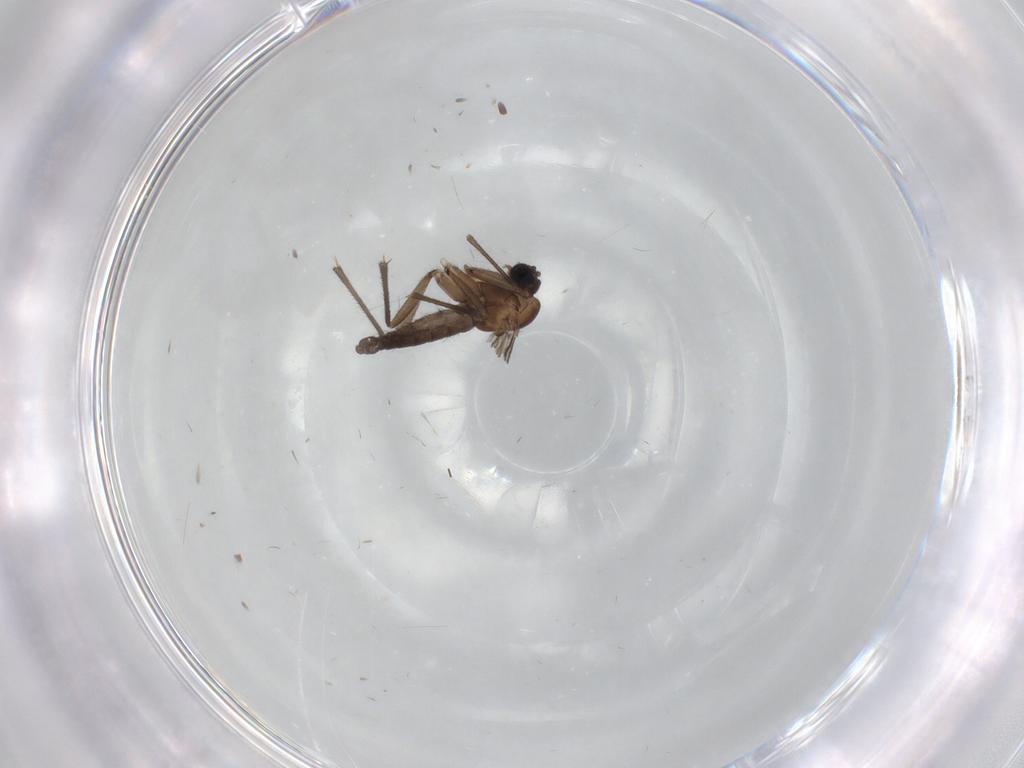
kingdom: Animalia
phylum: Arthropoda
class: Insecta
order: Diptera
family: Sciaridae
